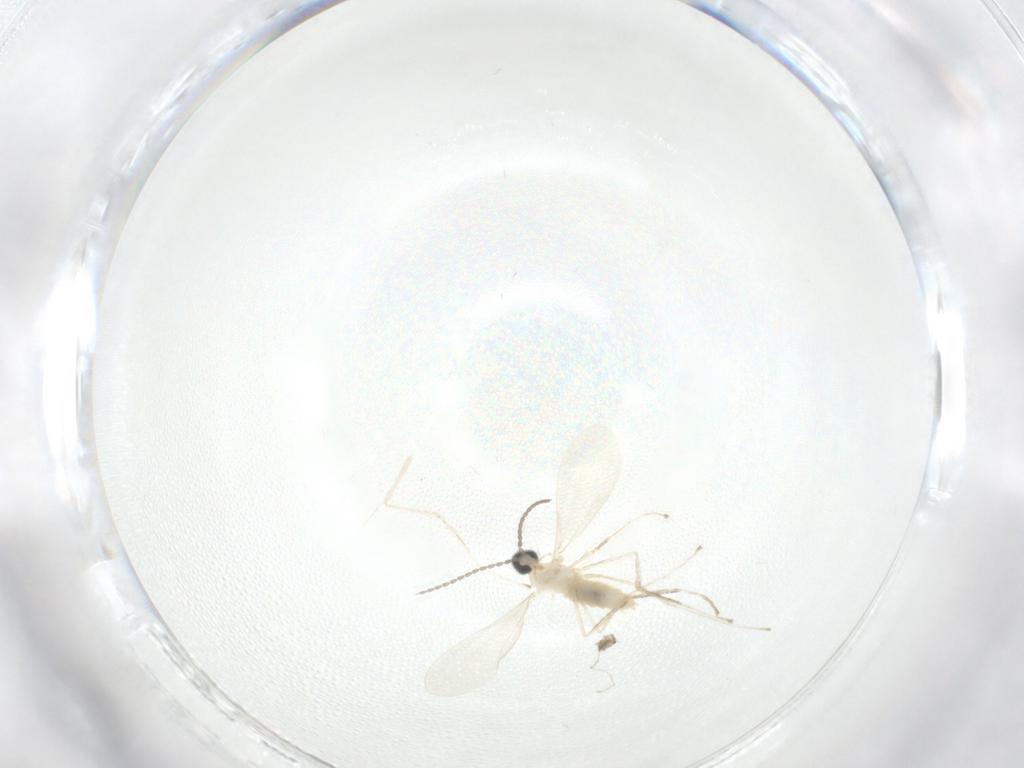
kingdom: Animalia
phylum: Arthropoda
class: Insecta
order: Diptera
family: Cecidomyiidae
